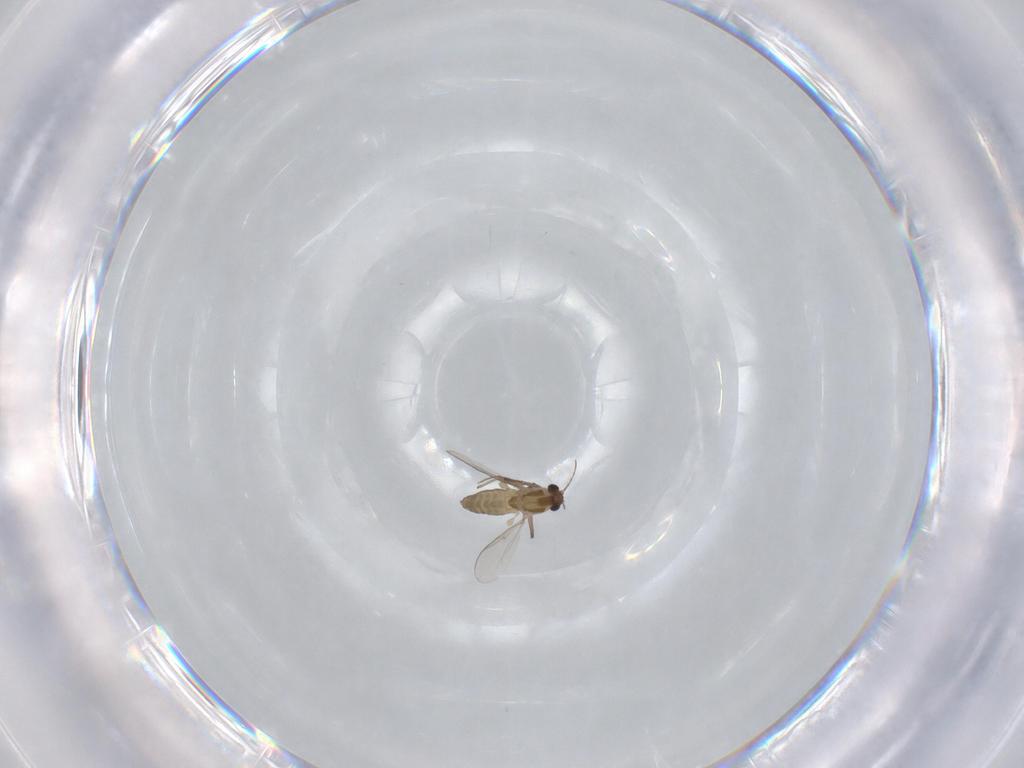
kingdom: Animalia
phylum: Arthropoda
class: Insecta
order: Diptera
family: Chironomidae
